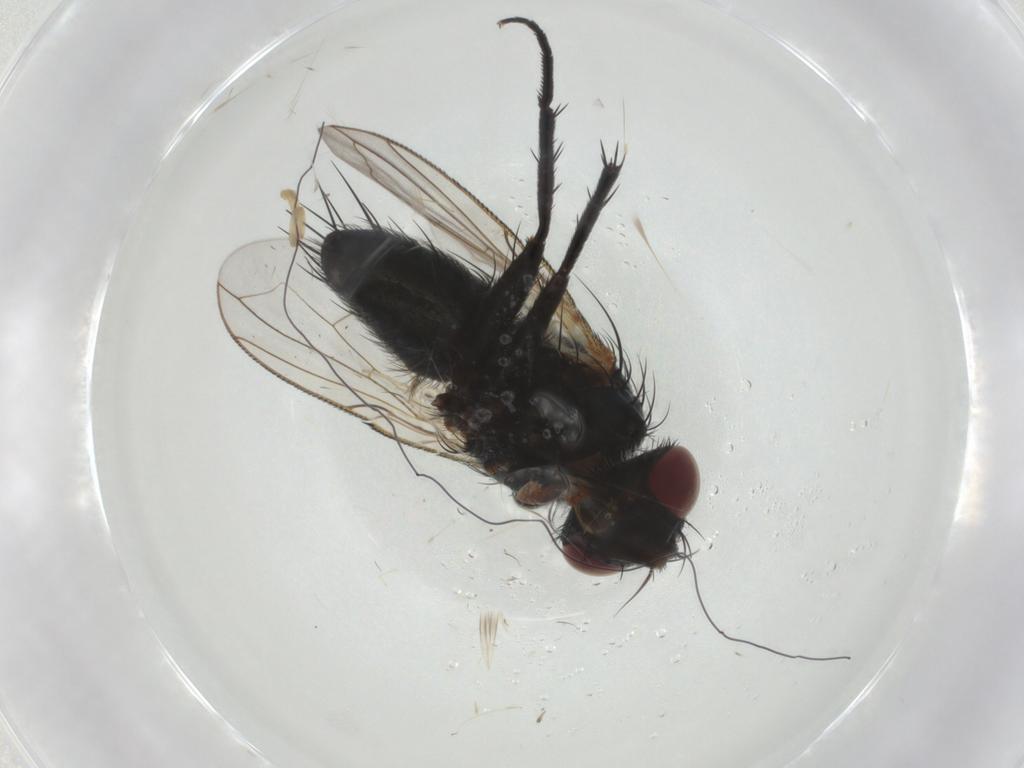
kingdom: Animalia
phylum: Arthropoda
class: Insecta
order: Diptera
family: Tachinidae
